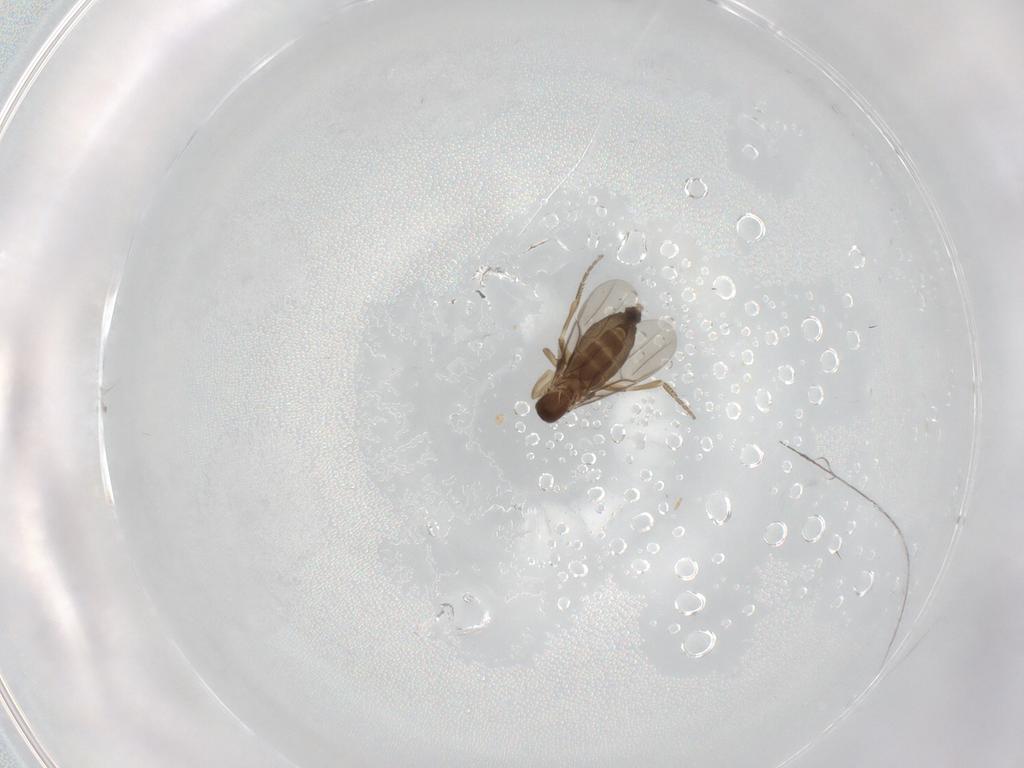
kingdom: Animalia
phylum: Arthropoda
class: Insecta
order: Diptera
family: Phoridae
